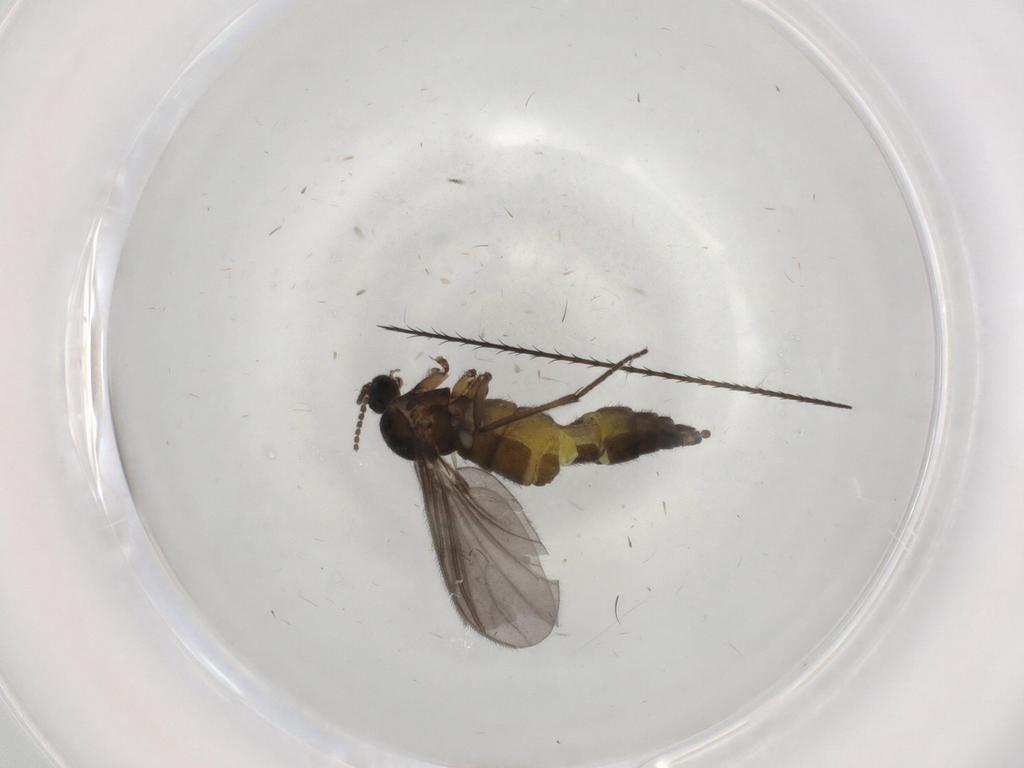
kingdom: Animalia
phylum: Arthropoda
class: Insecta
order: Diptera
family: Sciaridae
